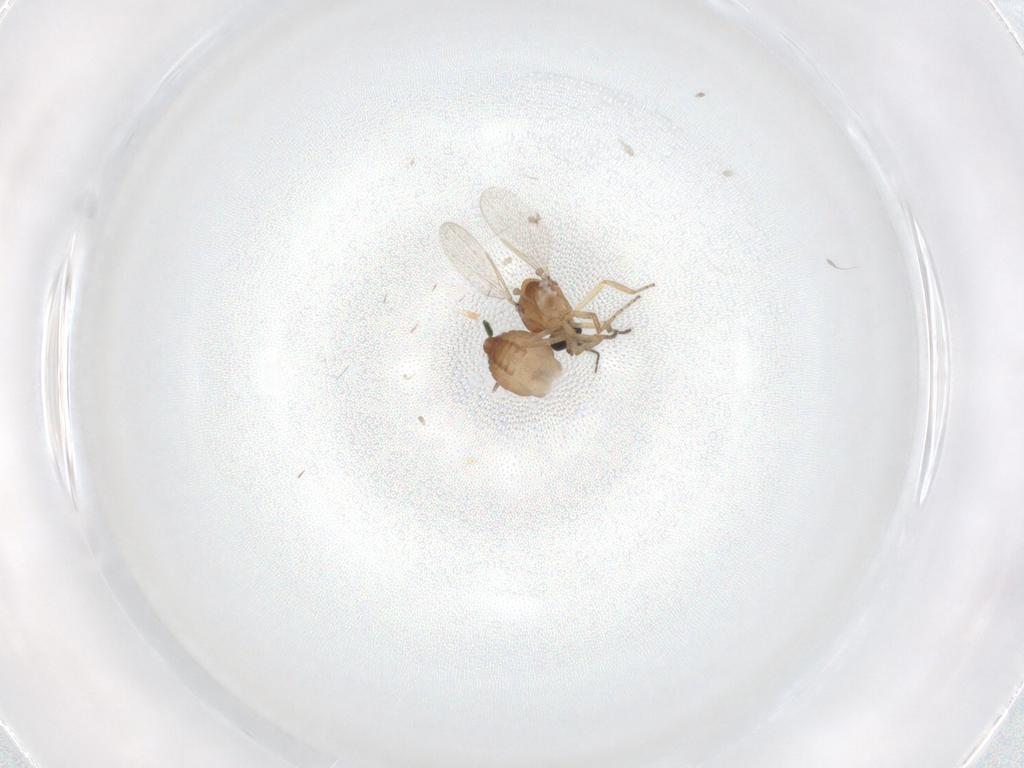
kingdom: Animalia
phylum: Arthropoda
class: Insecta
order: Diptera
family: Ceratopogonidae
